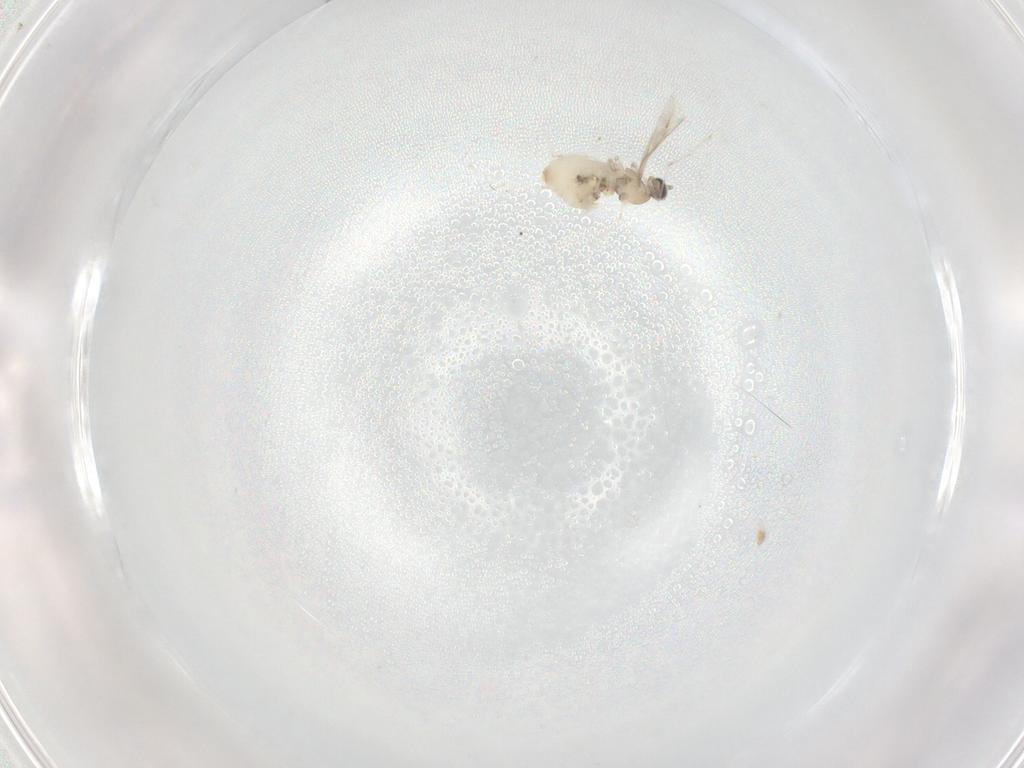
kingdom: Animalia
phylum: Arthropoda
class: Insecta
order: Diptera
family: Cecidomyiidae
